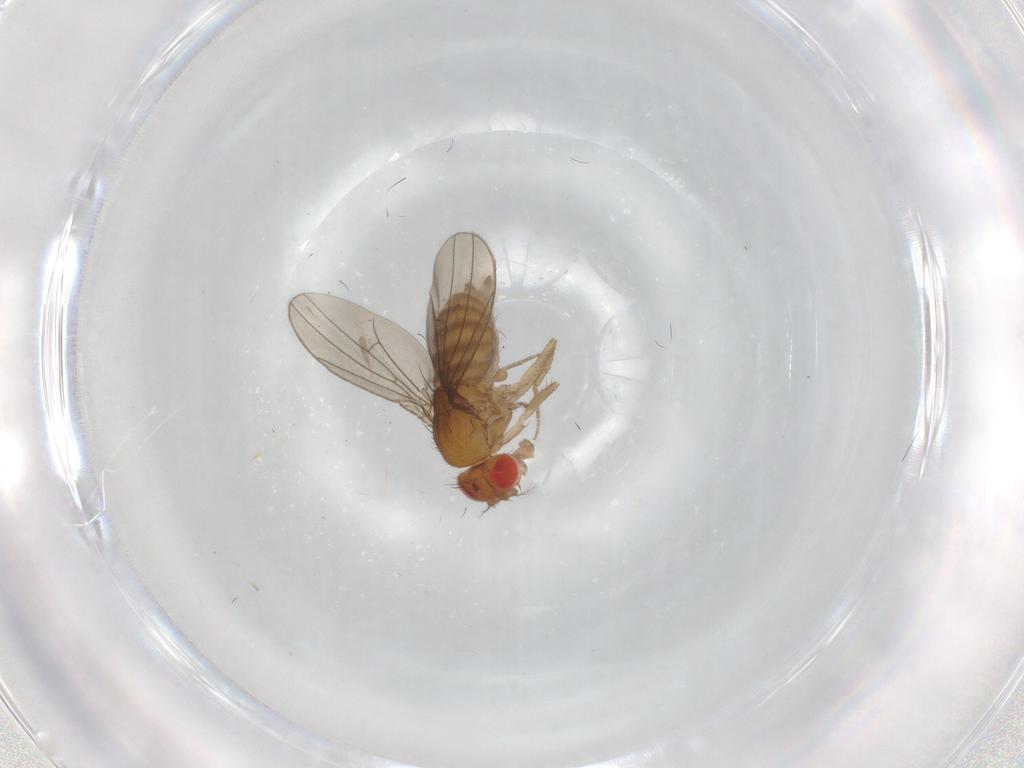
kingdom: Animalia
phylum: Arthropoda
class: Insecta
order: Diptera
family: Drosophilidae
